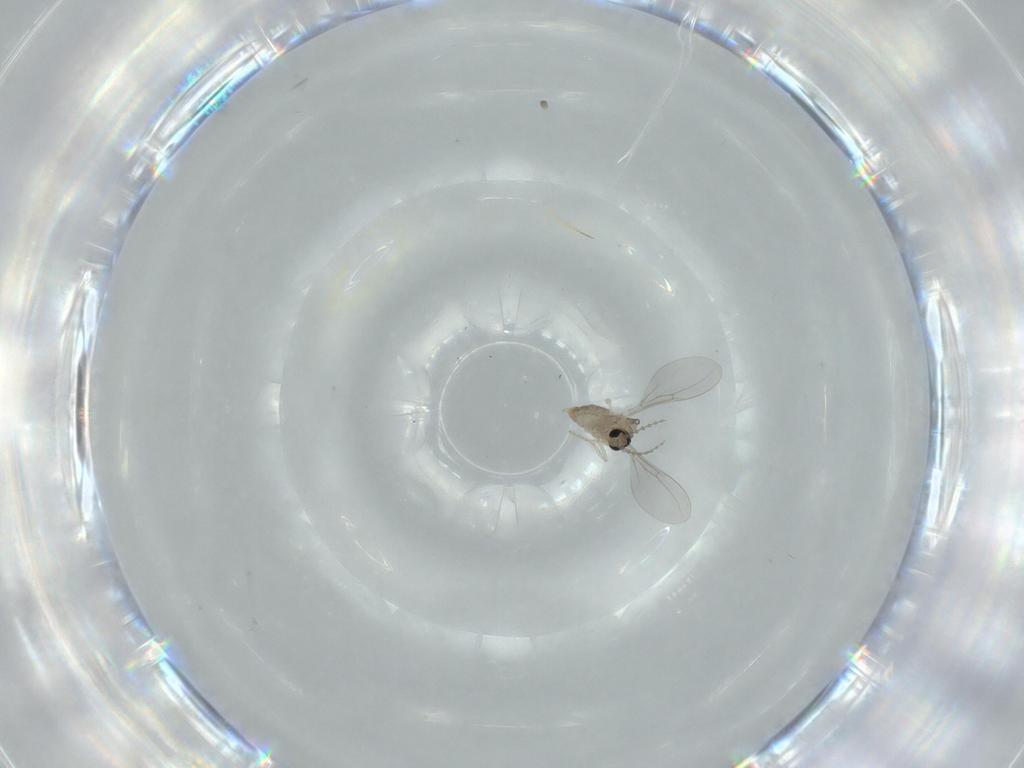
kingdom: Animalia
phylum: Arthropoda
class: Insecta
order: Diptera
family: Cecidomyiidae
